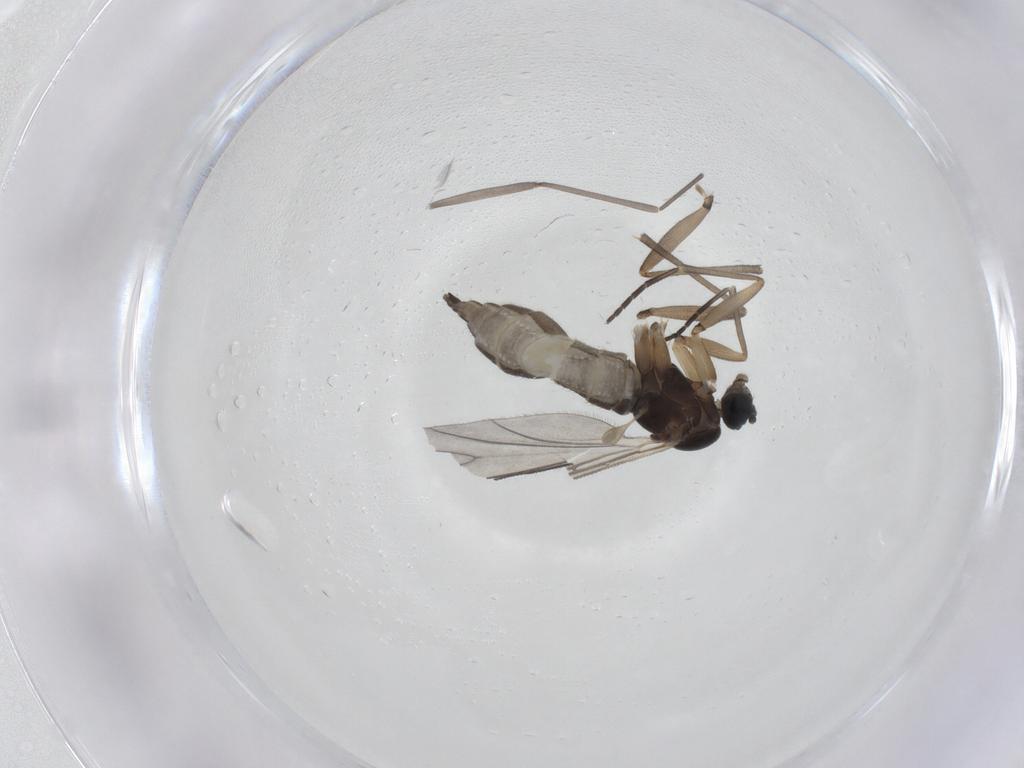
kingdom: Animalia
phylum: Arthropoda
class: Insecta
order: Diptera
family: Sciaridae
